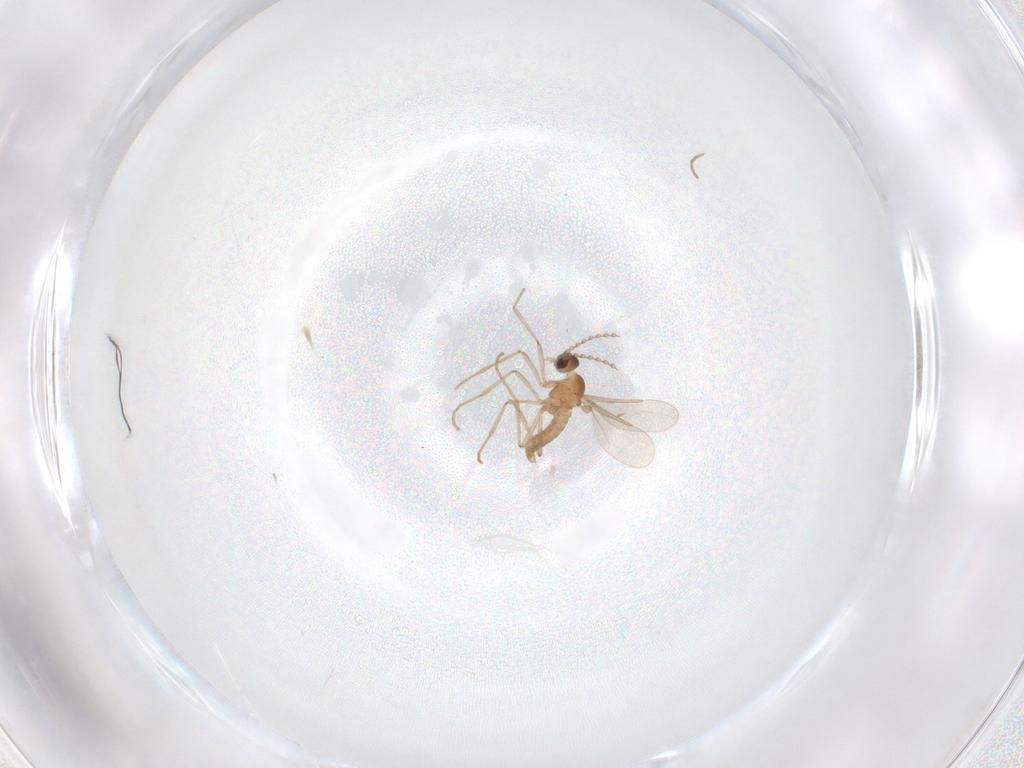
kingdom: Animalia
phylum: Arthropoda
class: Insecta
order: Diptera
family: Cecidomyiidae
